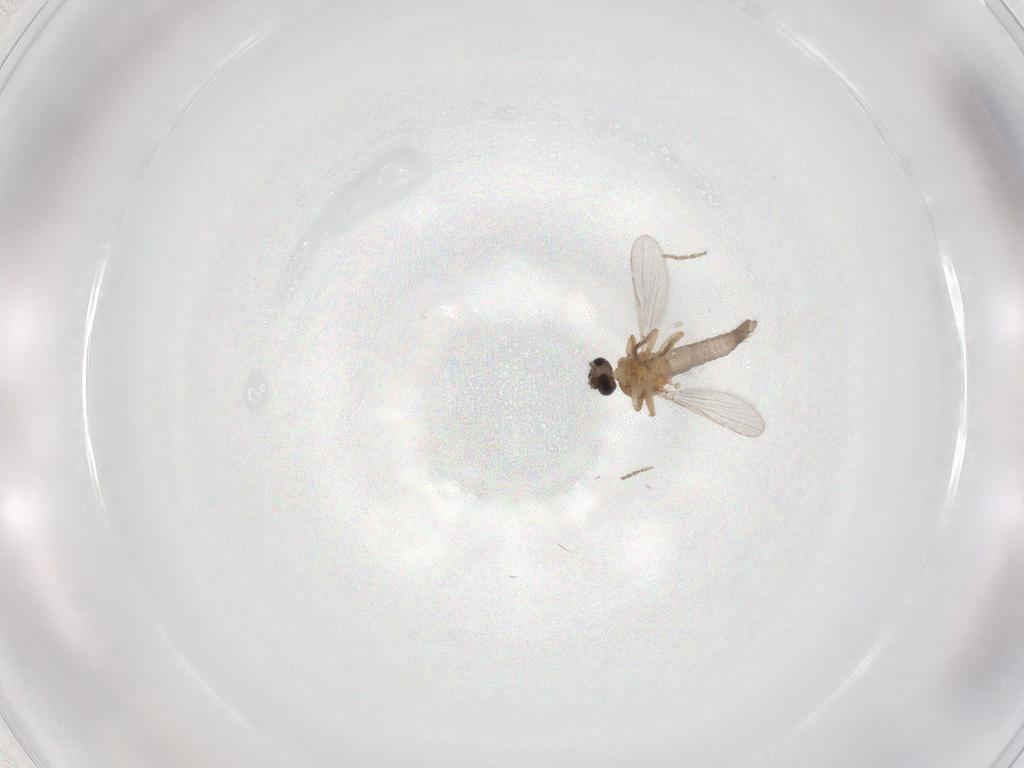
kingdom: Animalia
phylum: Arthropoda
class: Insecta
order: Diptera
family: Ceratopogonidae
